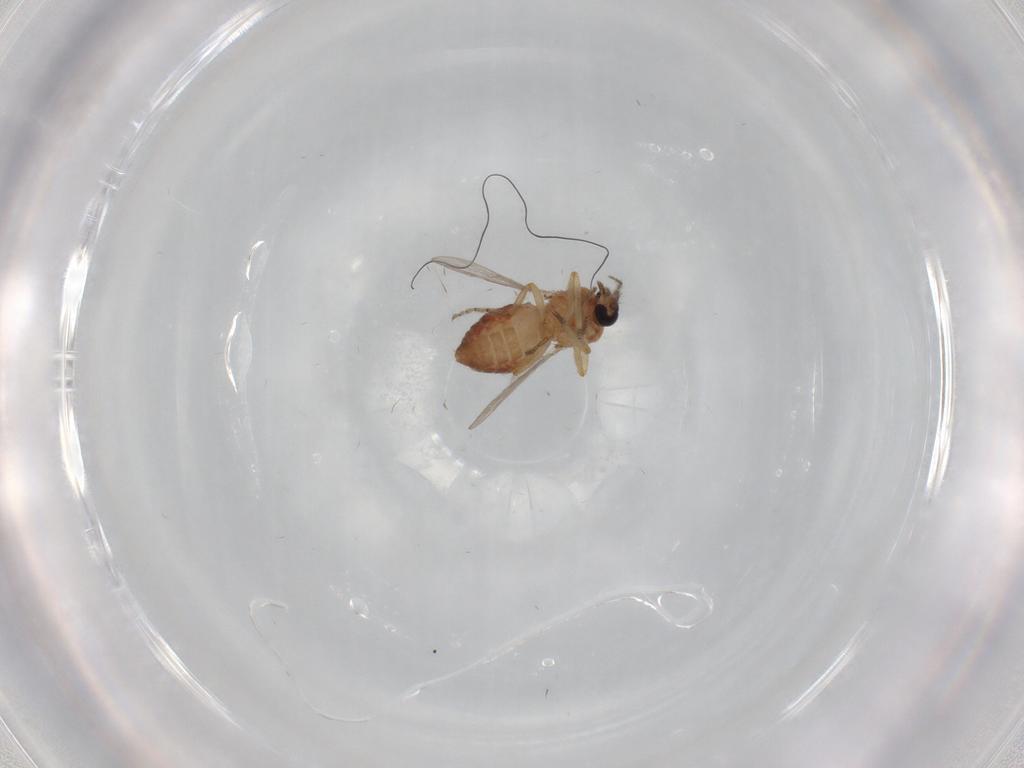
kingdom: Animalia
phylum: Arthropoda
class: Insecta
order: Diptera
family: Ceratopogonidae
